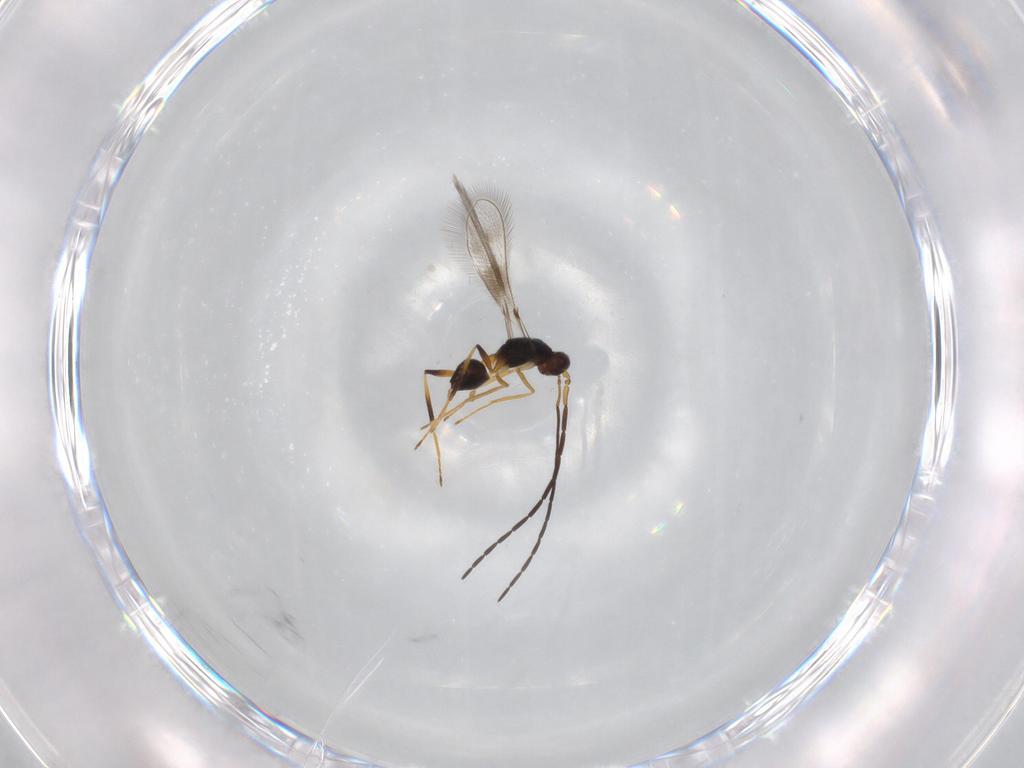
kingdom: Animalia
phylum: Arthropoda
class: Insecta
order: Hymenoptera
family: Mymaridae
